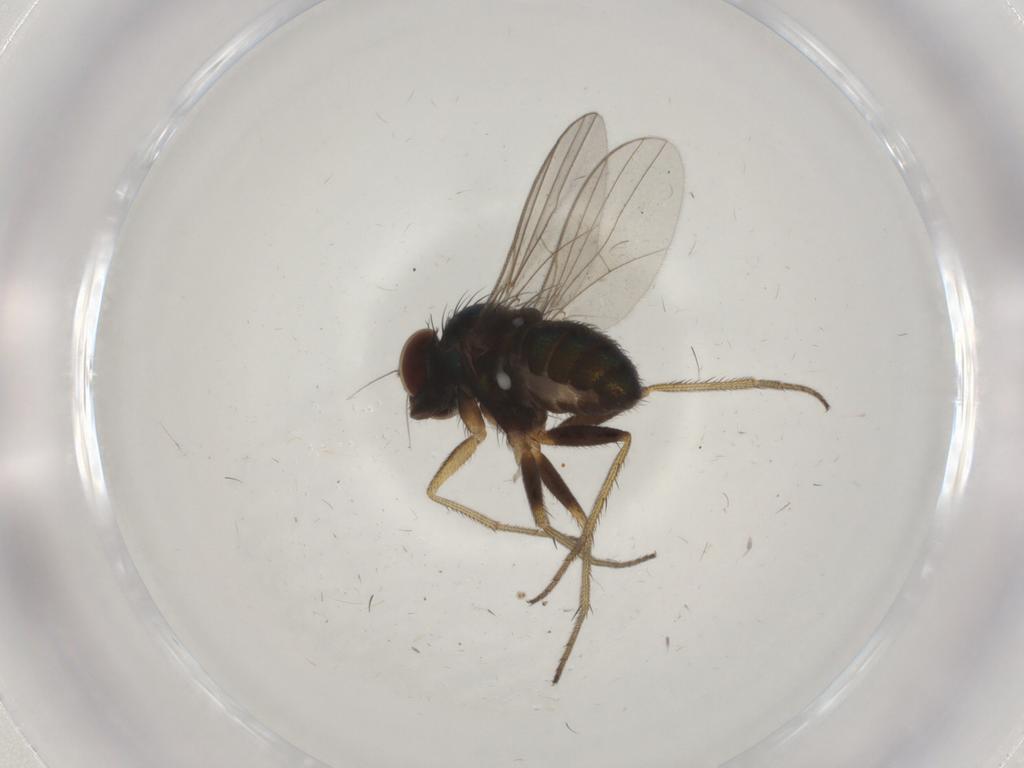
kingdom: Animalia
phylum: Arthropoda
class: Insecta
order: Diptera
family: Dolichopodidae
